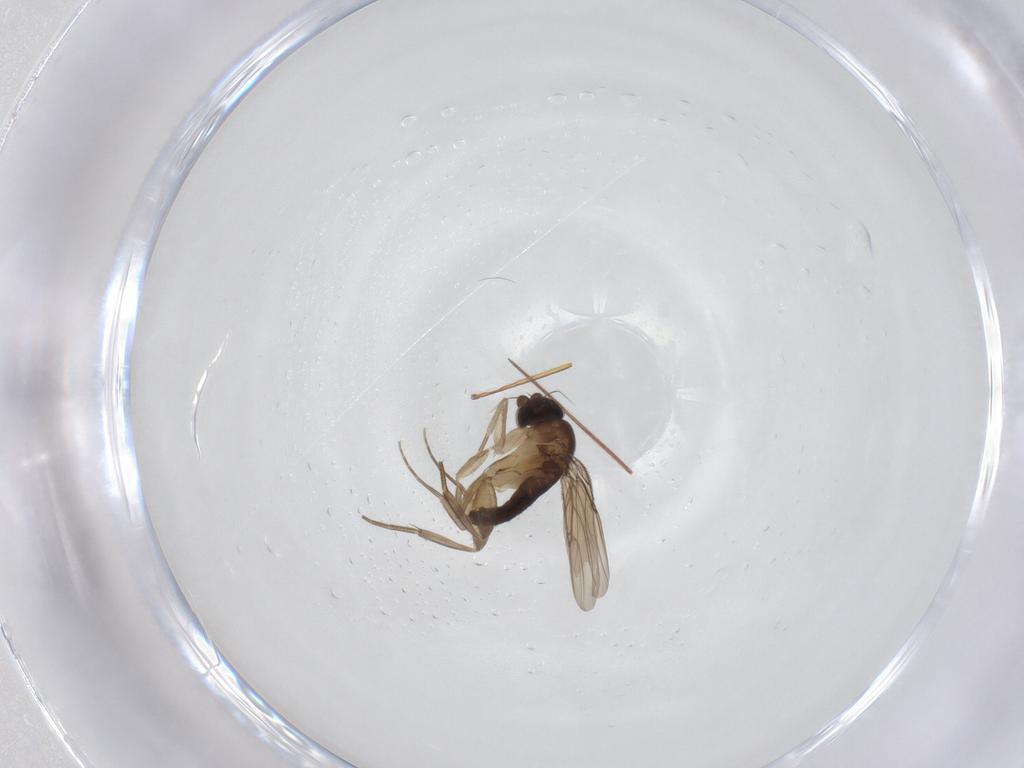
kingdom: Animalia
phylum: Arthropoda
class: Insecta
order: Diptera
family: Phoridae
